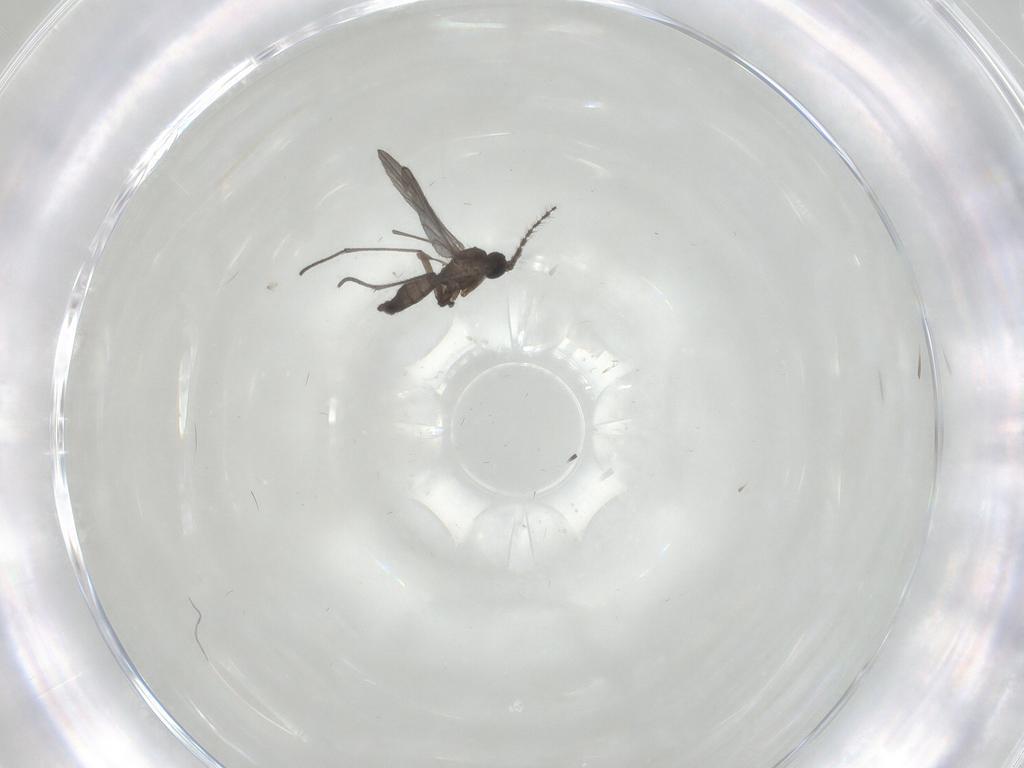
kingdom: Animalia
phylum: Arthropoda
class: Insecta
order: Diptera
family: Sciaridae
